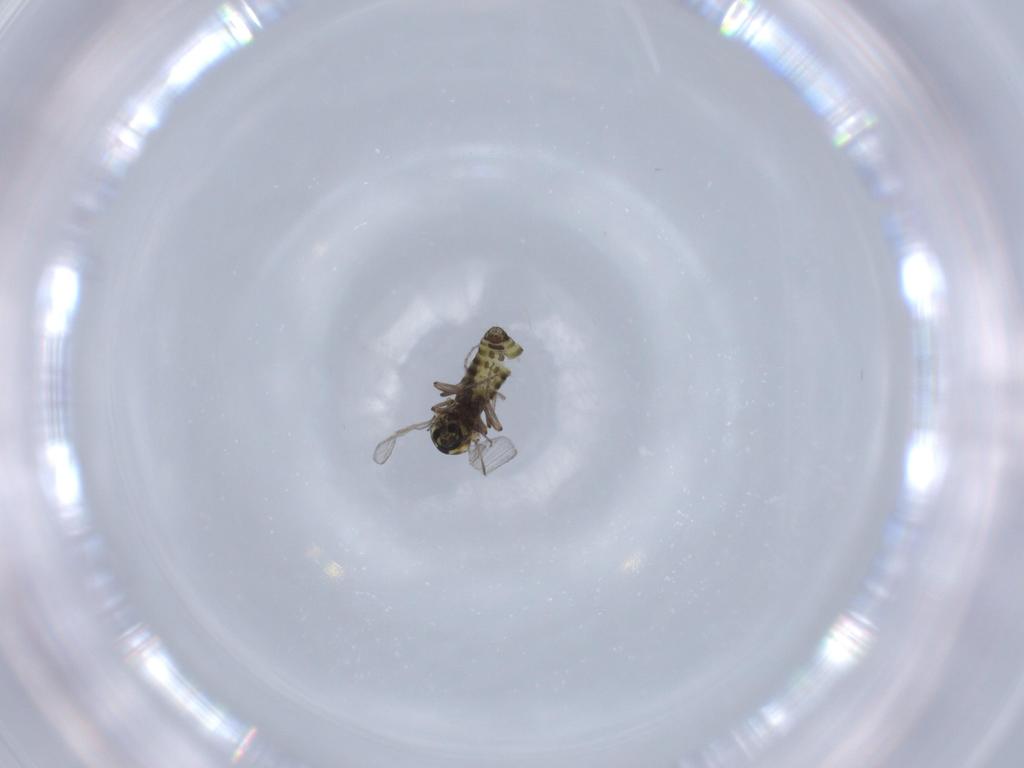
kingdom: Animalia
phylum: Arthropoda
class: Insecta
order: Diptera
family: Ceratopogonidae
